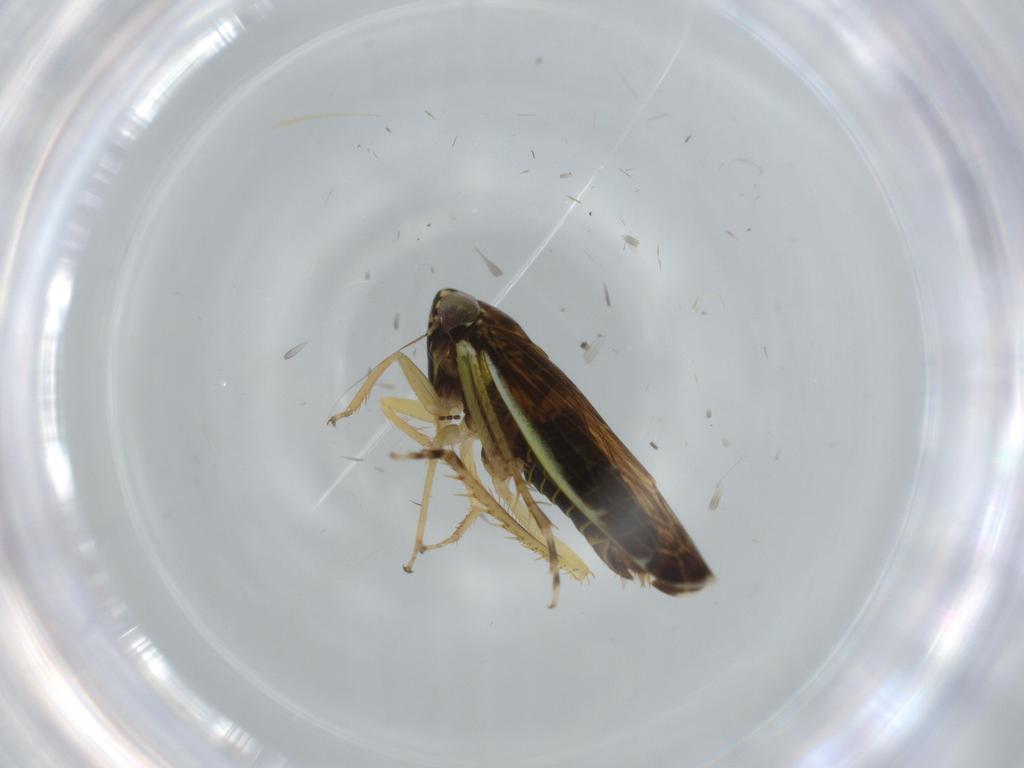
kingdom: Animalia
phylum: Arthropoda
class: Insecta
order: Hemiptera
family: Cicadellidae
